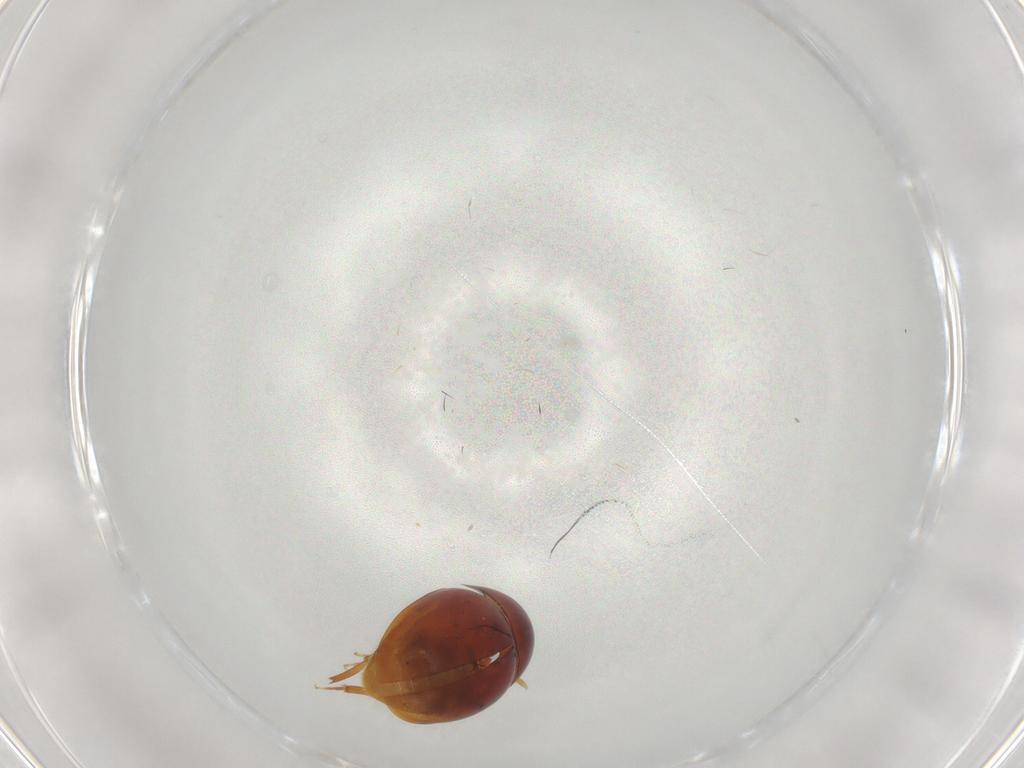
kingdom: Animalia
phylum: Arthropoda
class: Insecta
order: Coleoptera
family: Phalacridae
